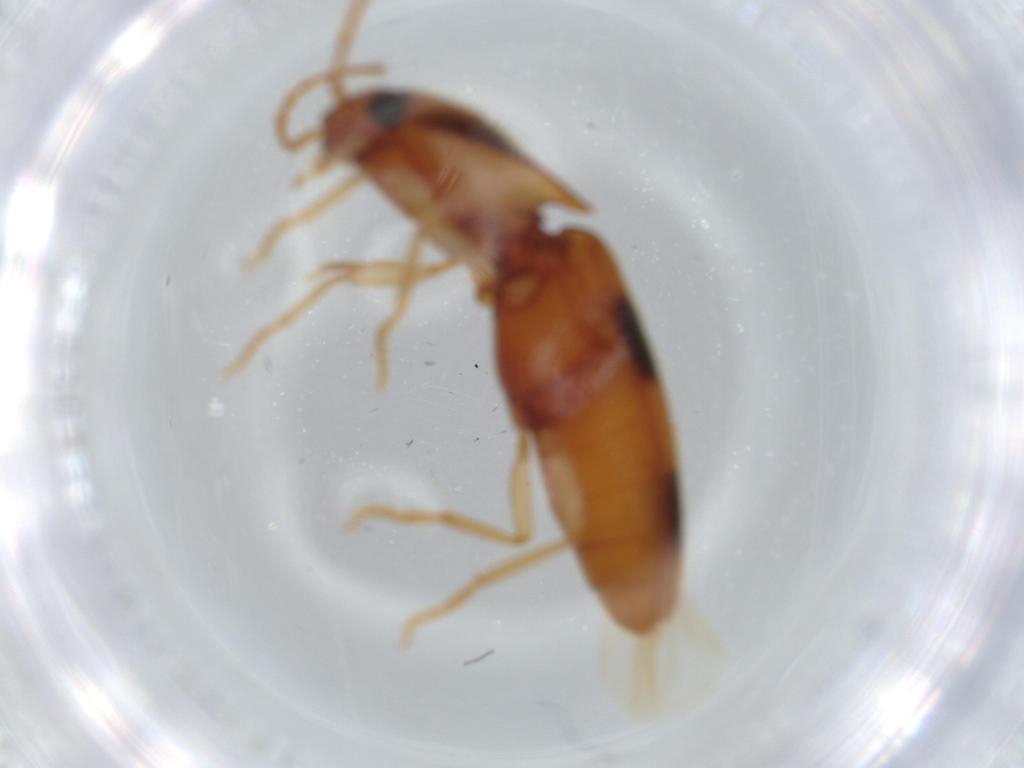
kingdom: Animalia
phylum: Arthropoda
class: Insecta
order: Coleoptera
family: Elateridae
